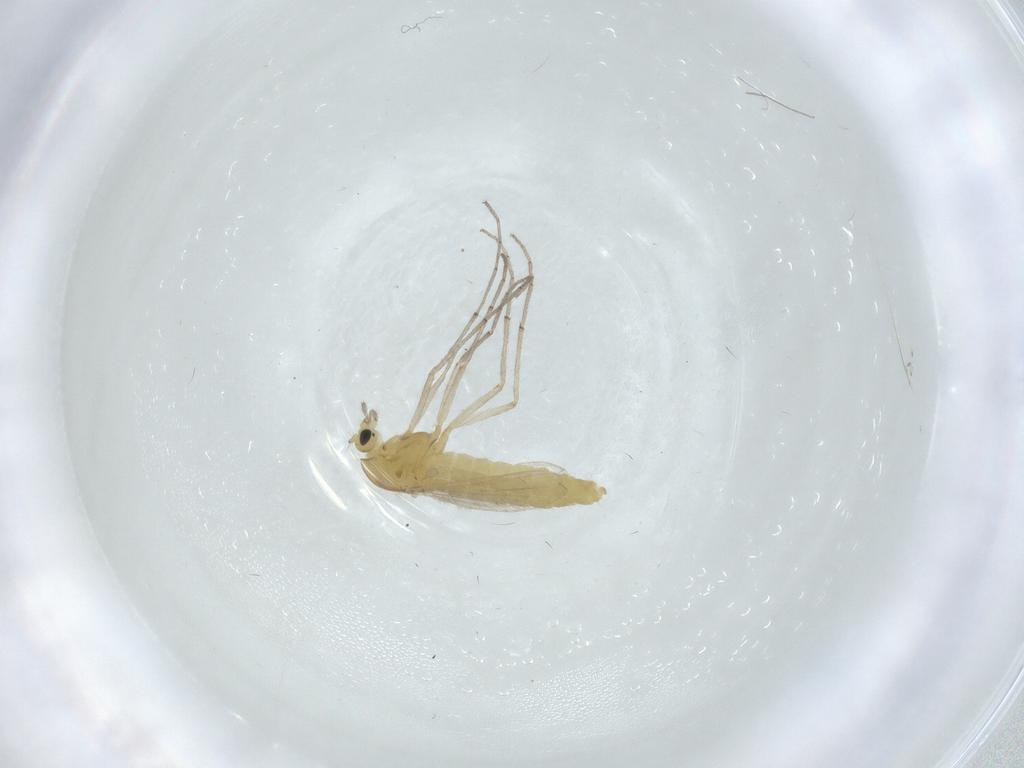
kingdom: Animalia
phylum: Arthropoda
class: Insecta
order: Diptera
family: Chironomidae
